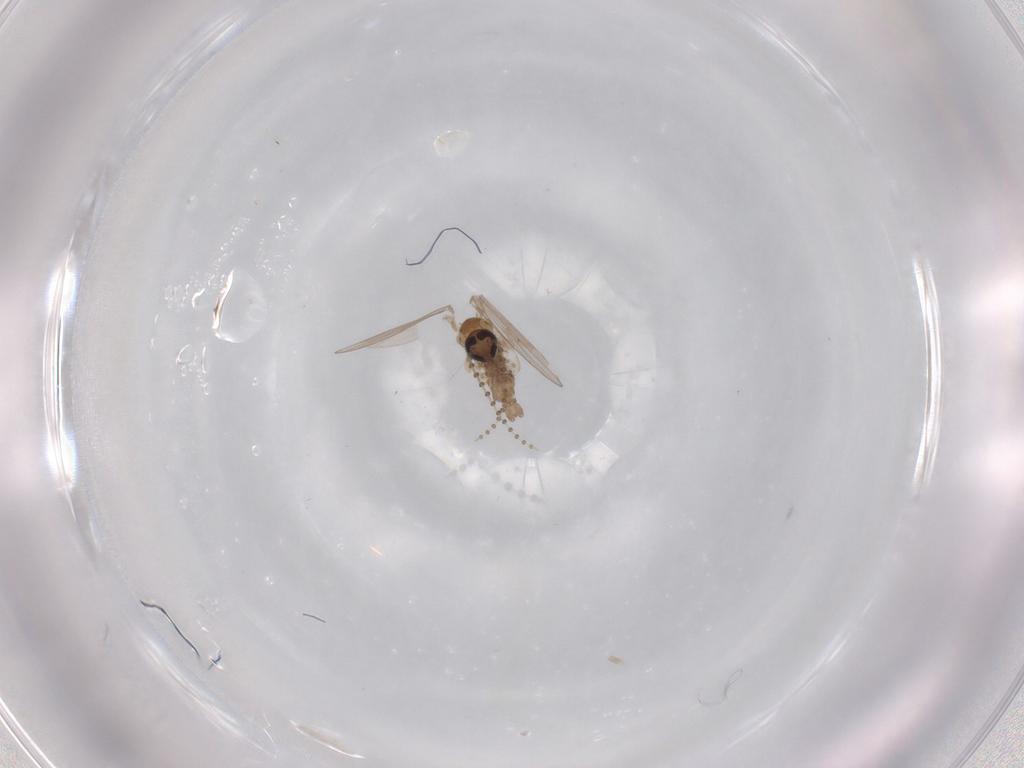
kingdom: Animalia
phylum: Arthropoda
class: Insecta
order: Diptera
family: Psychodidae
